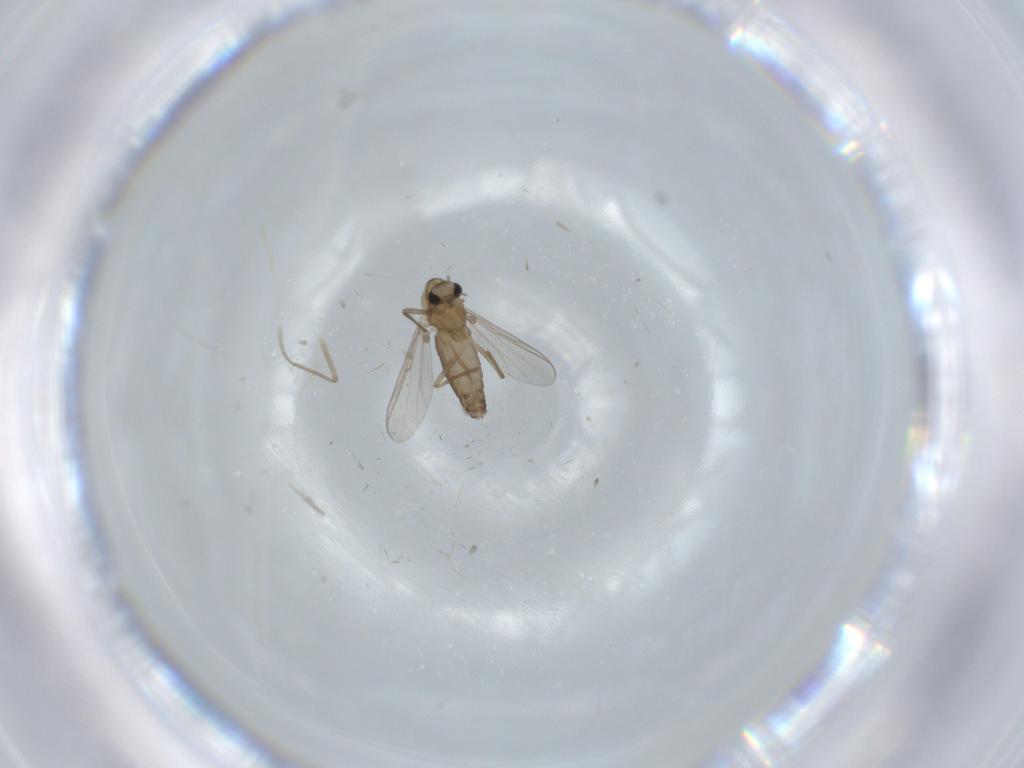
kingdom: Animalia
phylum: Arthropoda
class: Insecta
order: Diptera
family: Chironomidae
